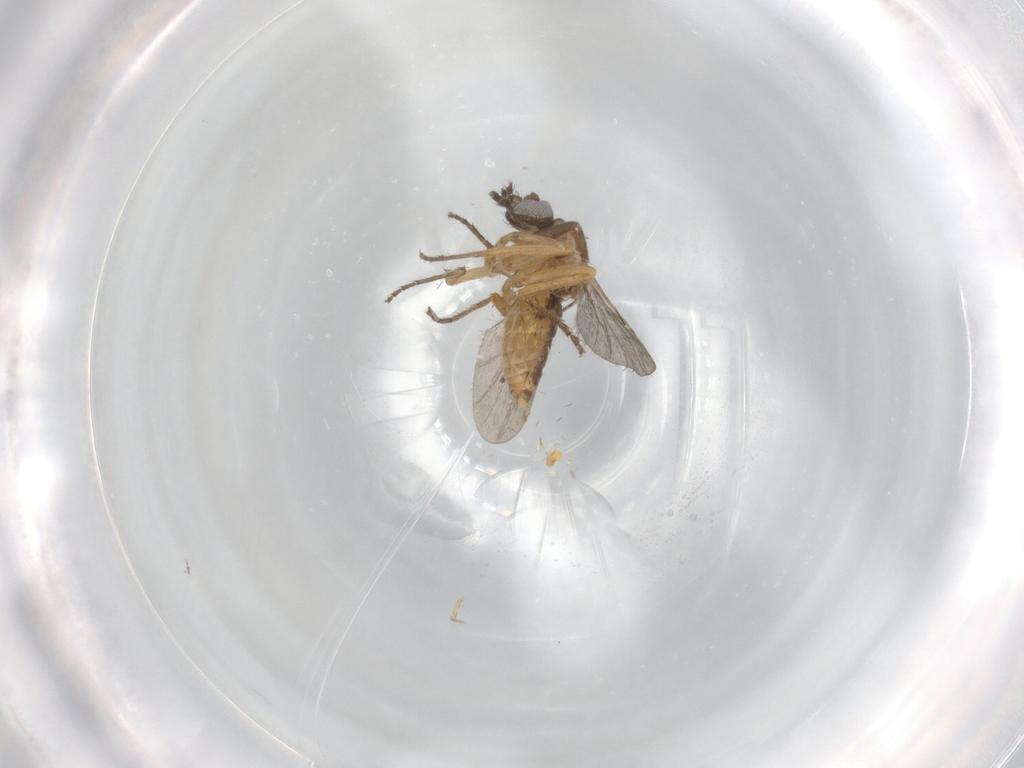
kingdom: Animalia
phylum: Arthropoda
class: Insecta
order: Diptera
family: Ceratopogonidae
